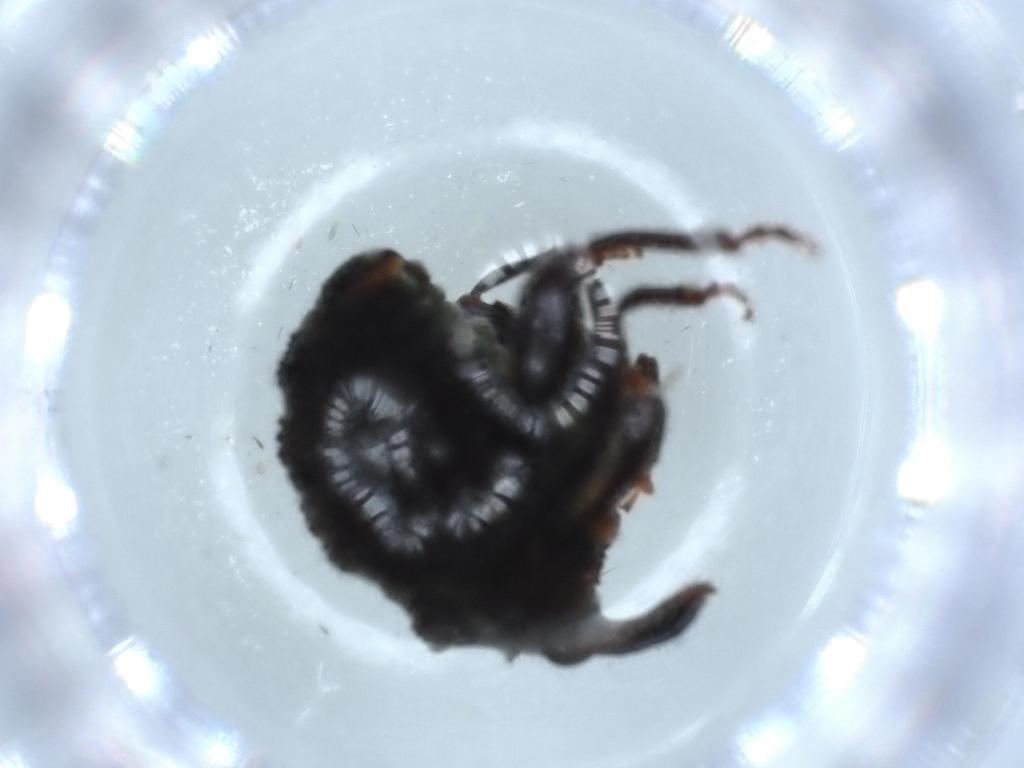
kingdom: Animalia
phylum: Arthropoda
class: Insecta
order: Coleoptera
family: Curculionidae
